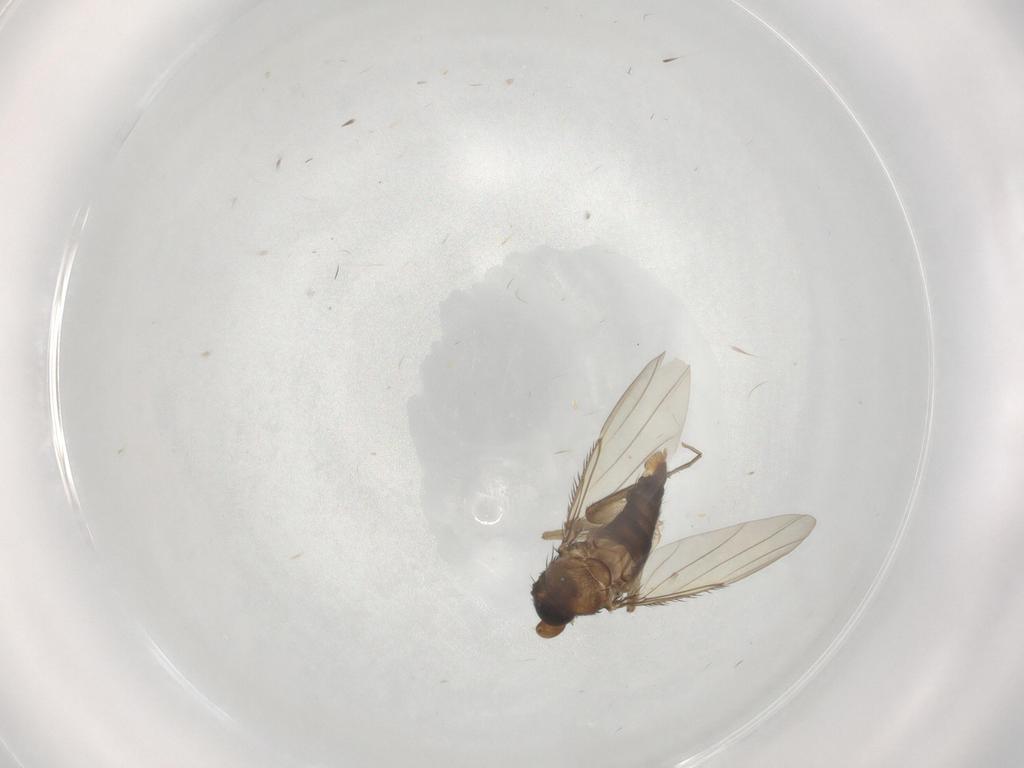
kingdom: Animalia
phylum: Arthropoda
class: Insecta
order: Diptera
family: Phoridae
